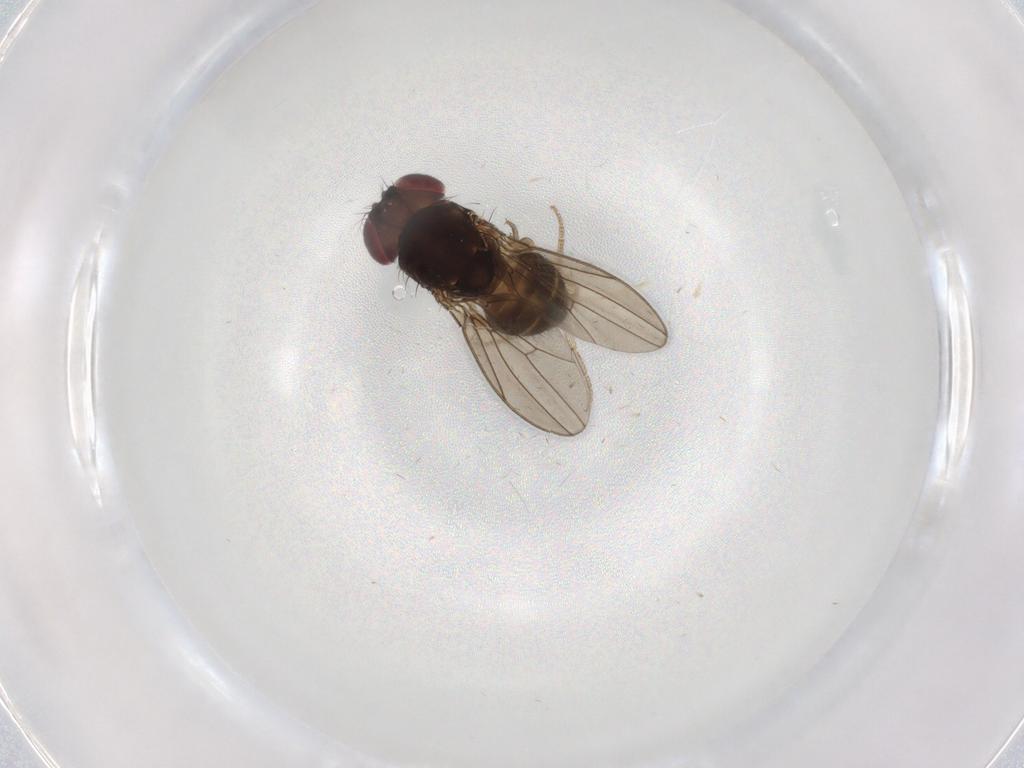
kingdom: Animalia
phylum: Arthropoda
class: Insecta
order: Diptera
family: Drosophilidae
